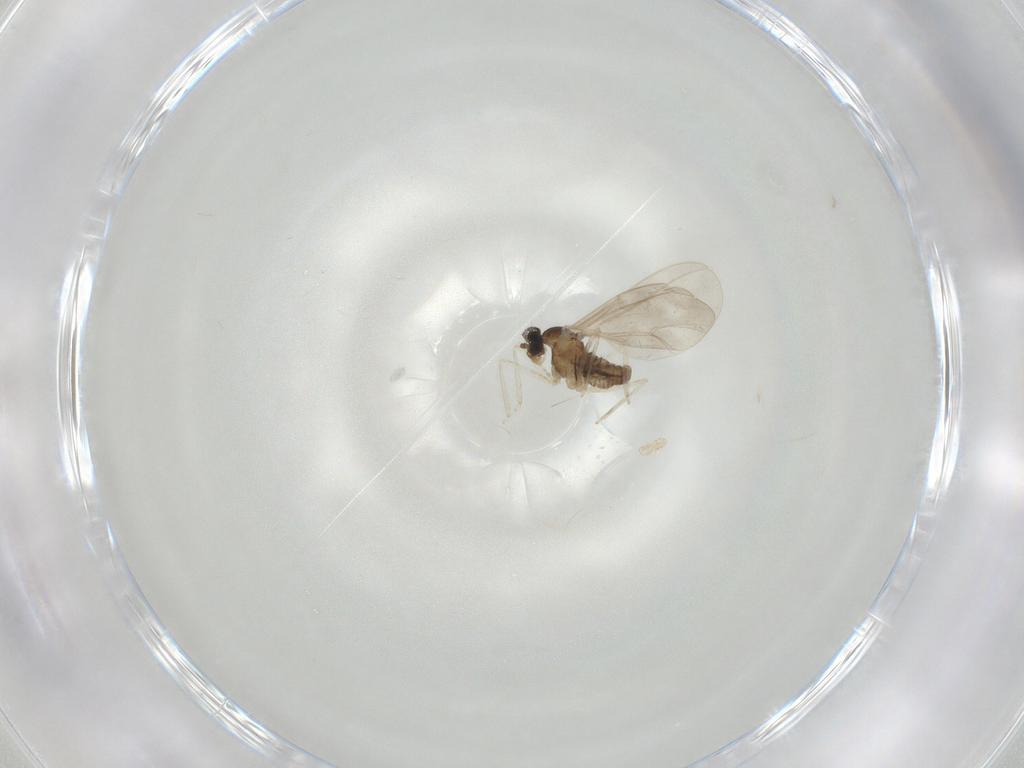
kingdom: Animalia
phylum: Arthropoda
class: Insecta
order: Diptera
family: Cecidomyiidae
